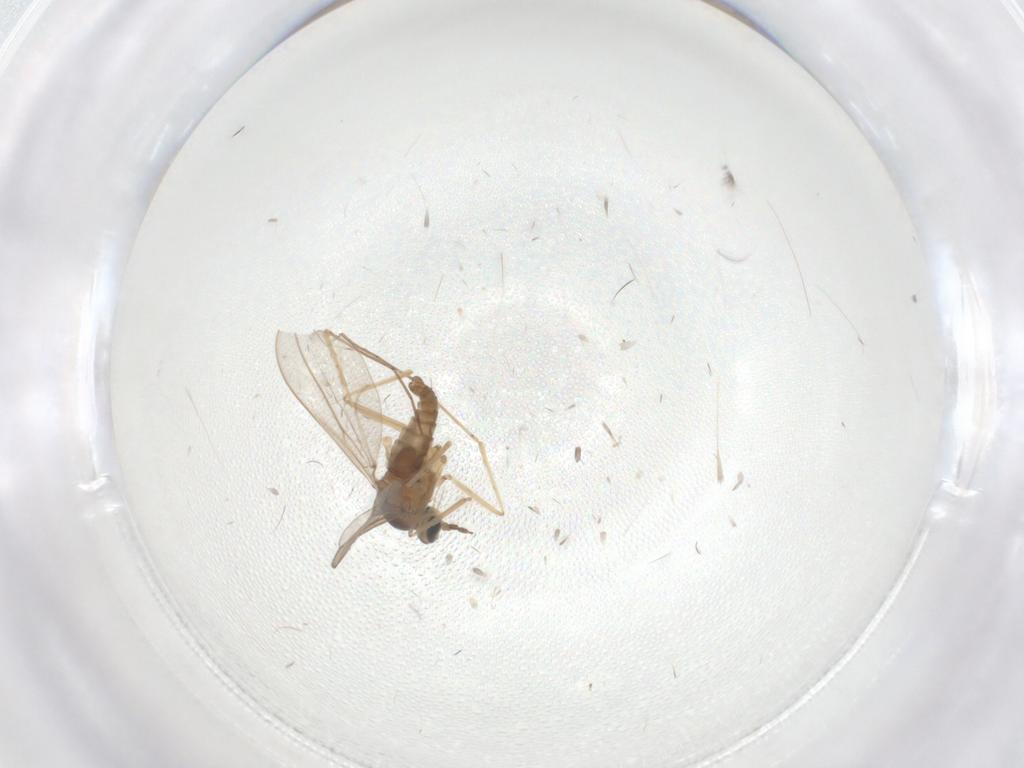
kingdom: Animalia
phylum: Arthropoda
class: Insecta
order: Diptera
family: Cecidomyiidae
